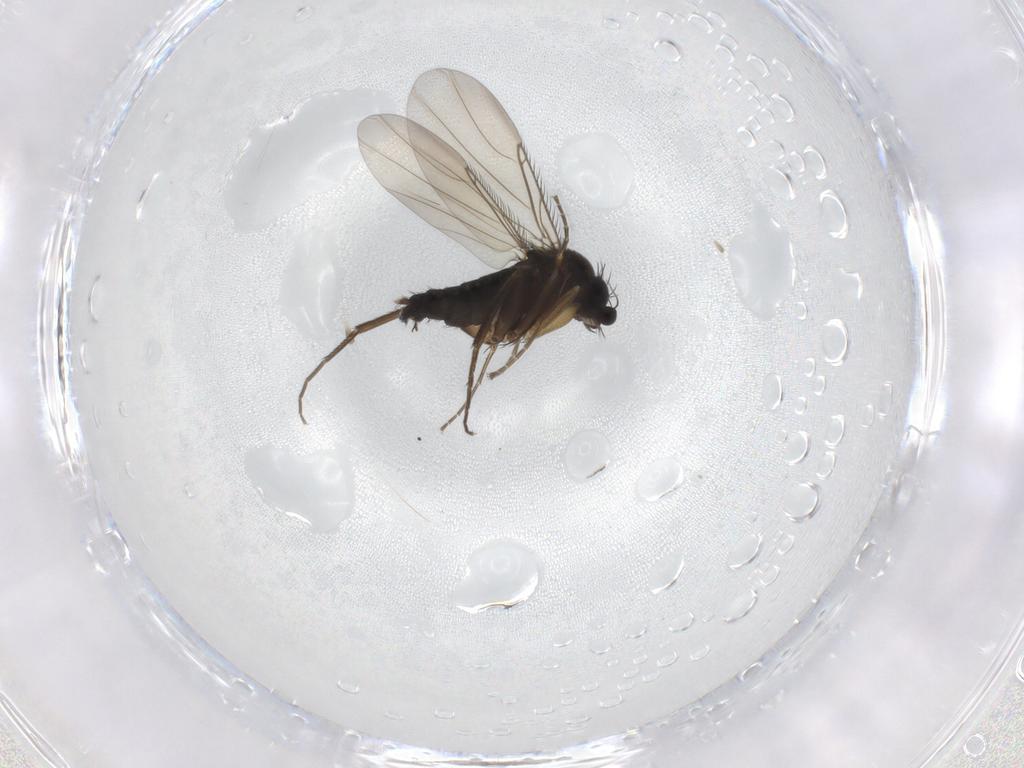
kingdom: Animalia
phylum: Arthropoda
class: Insecta
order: Diptera
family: Phoridae
